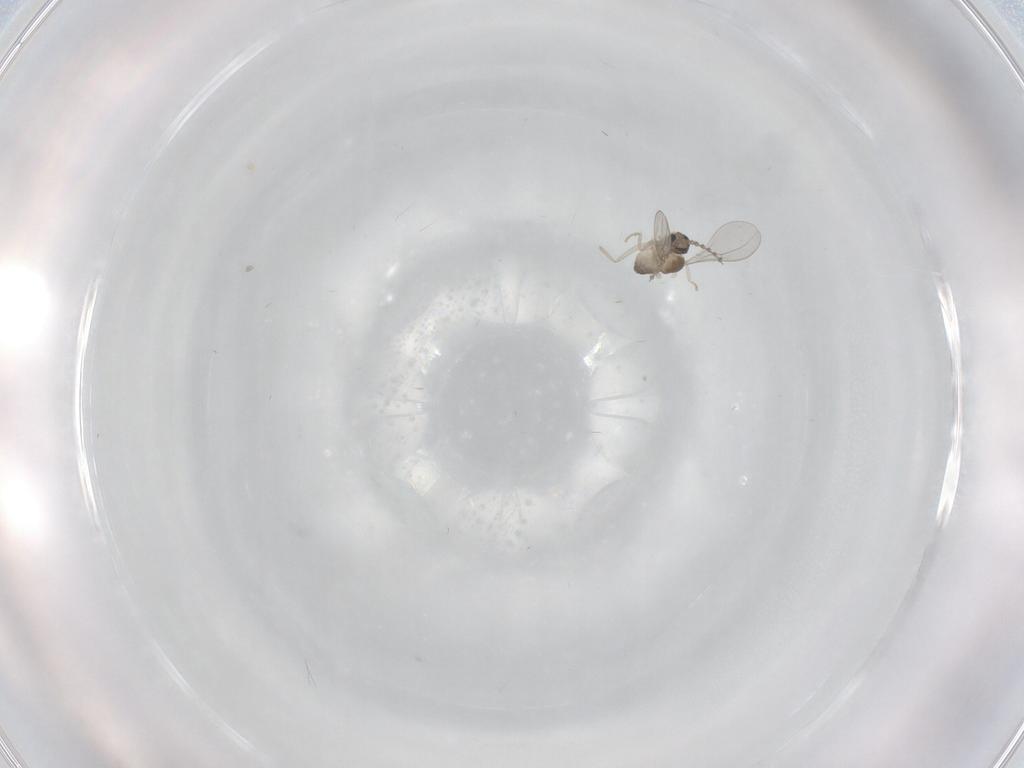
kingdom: Animalia
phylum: Arthropoda
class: Insecta
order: Diptera
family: Cecidomyiidae
